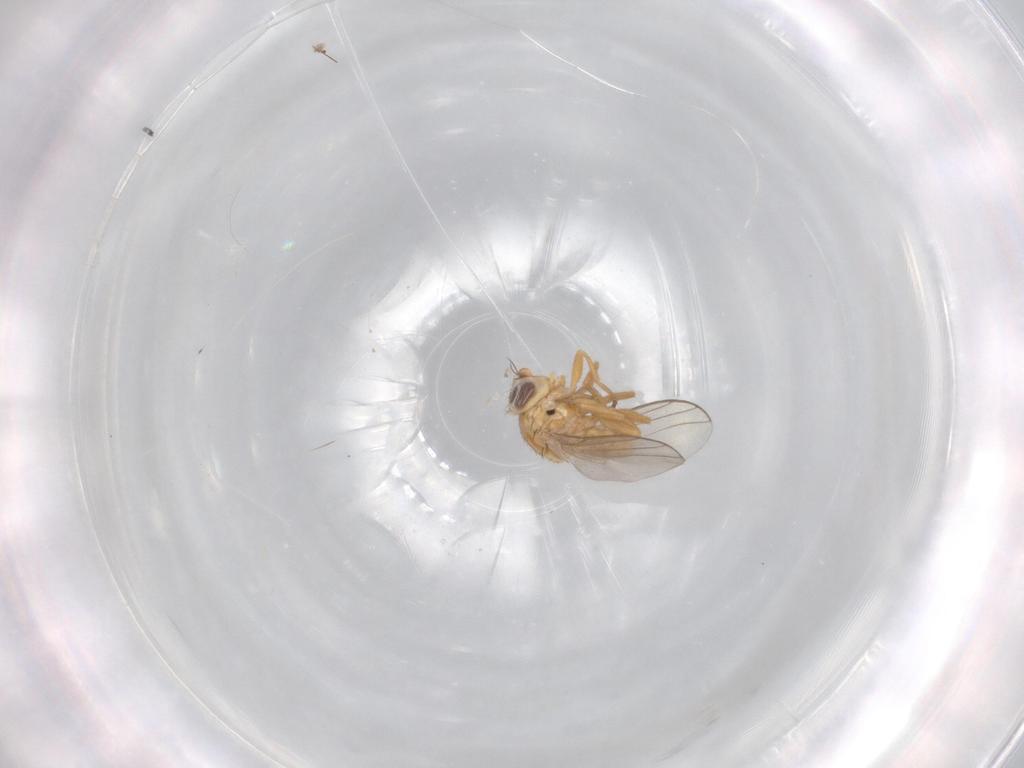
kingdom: Animalia
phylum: Arthropoda
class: Insecta
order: Diptera
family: Chloropidae
